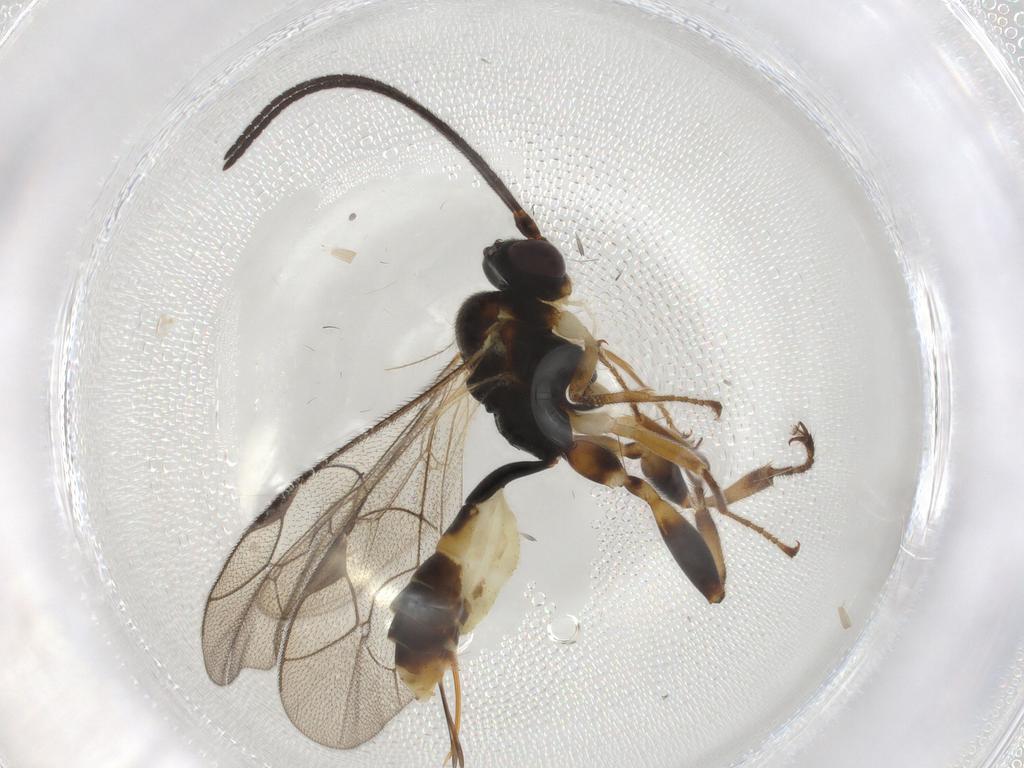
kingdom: Animalia
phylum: Arthropoda
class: Insecta
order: Hymenoptera
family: Ichneumonidae
